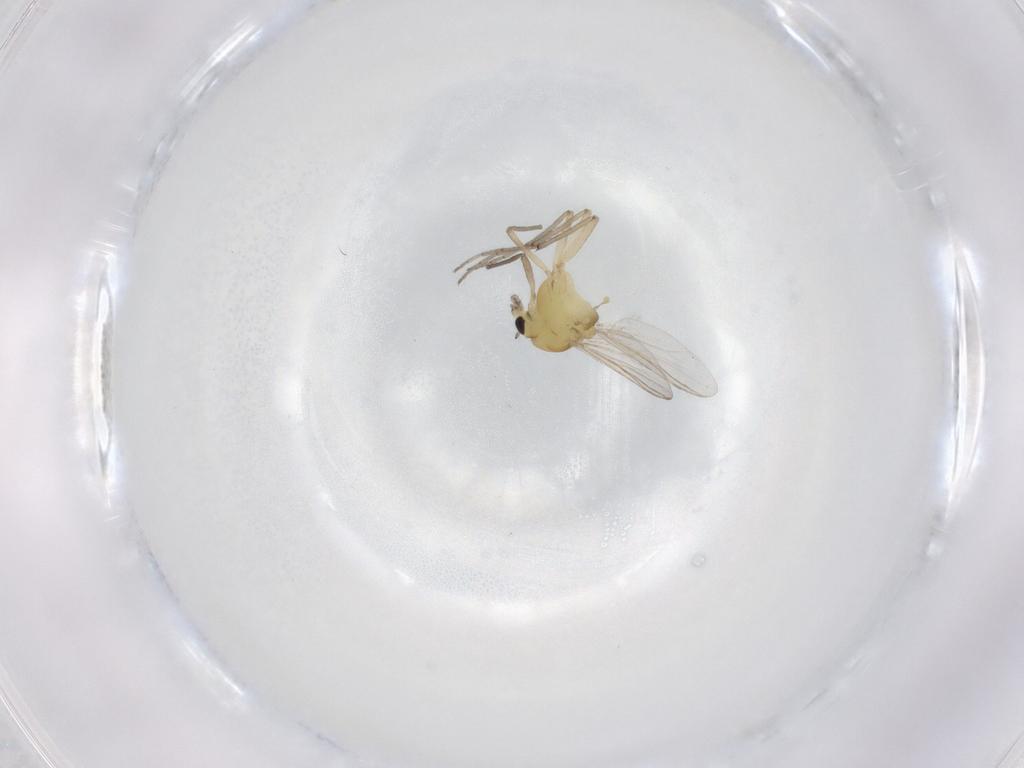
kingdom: Animalia
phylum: Arthropoda
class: Insecta
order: Diptera
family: Chironomidae
